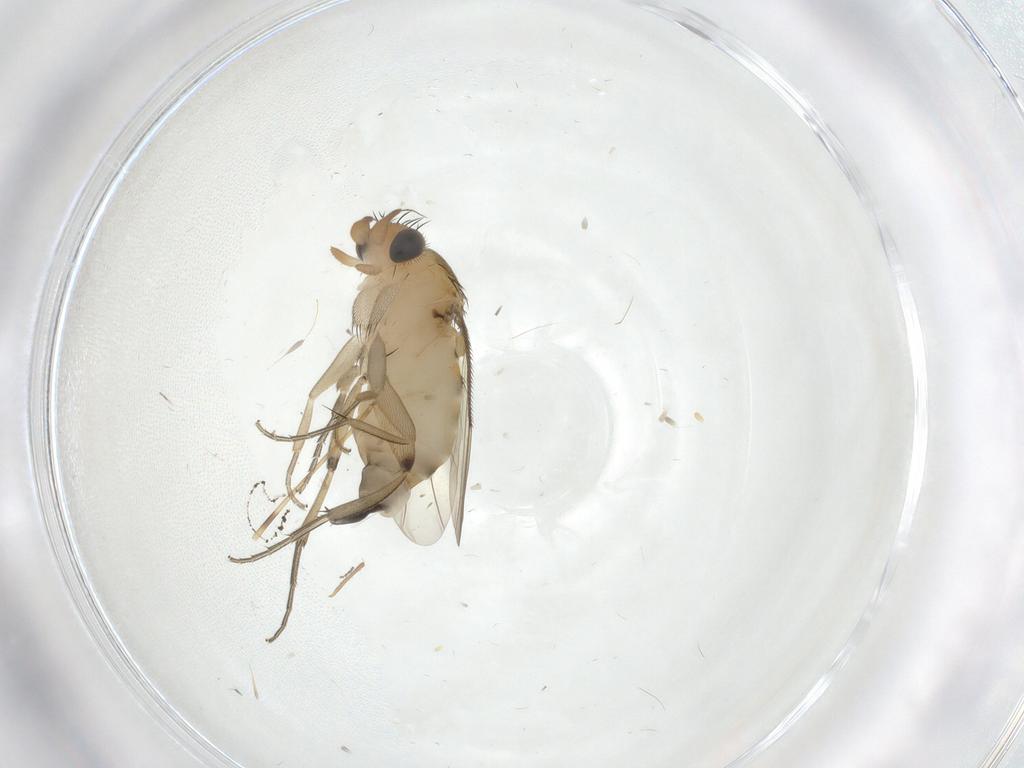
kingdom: Animalia
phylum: Arthropoda
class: Insecta
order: Diptera
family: Phoridae
